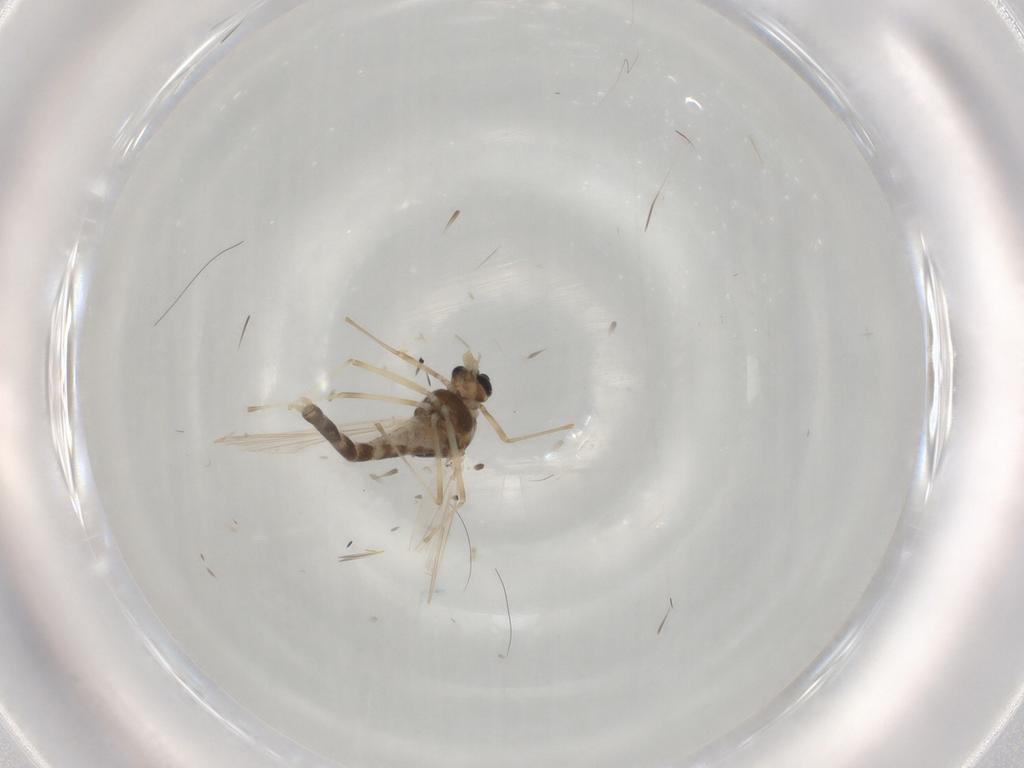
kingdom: Animalia
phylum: Arthropoda
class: Insecta
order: Diptera
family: Chironomidae
